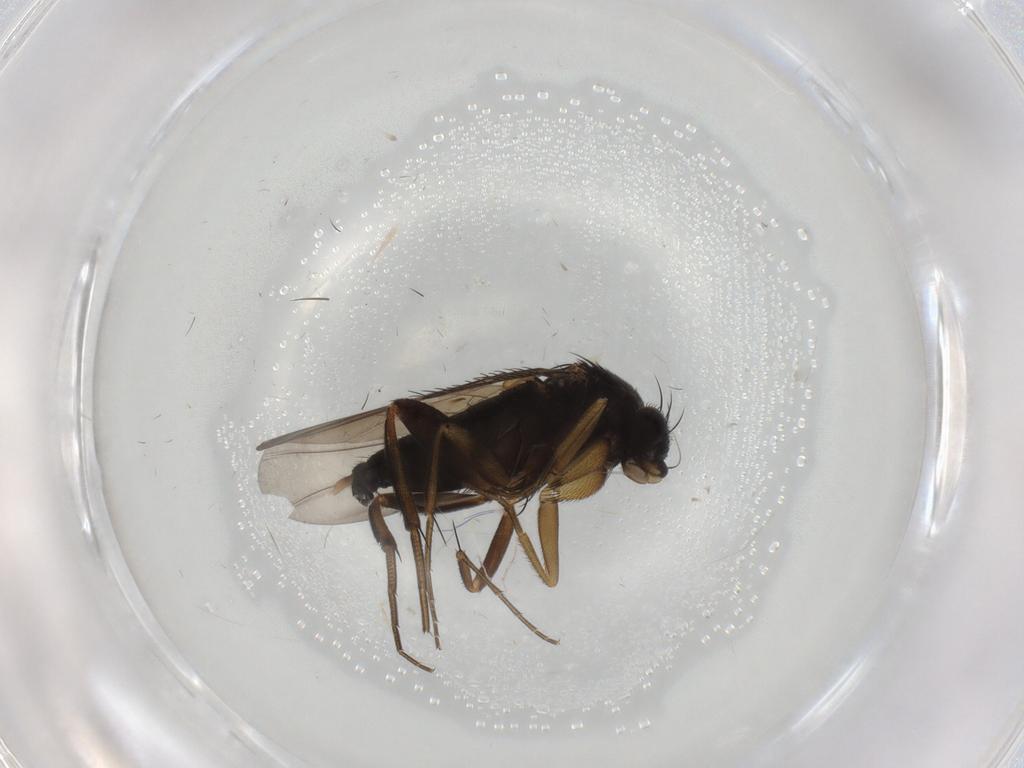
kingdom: Animalia
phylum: Arthropoda
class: Insecta
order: Diptera
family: Phoridae
